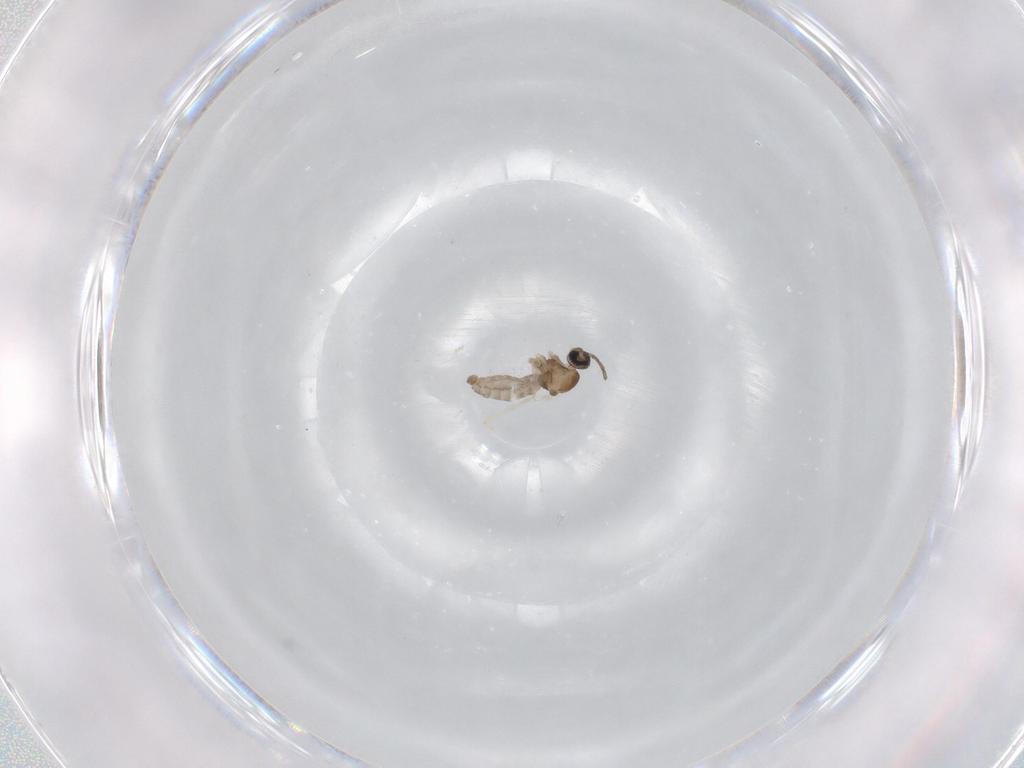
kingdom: Animalia
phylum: Arthropoda
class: Insecta
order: Diptera
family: Cecidomyiidae
